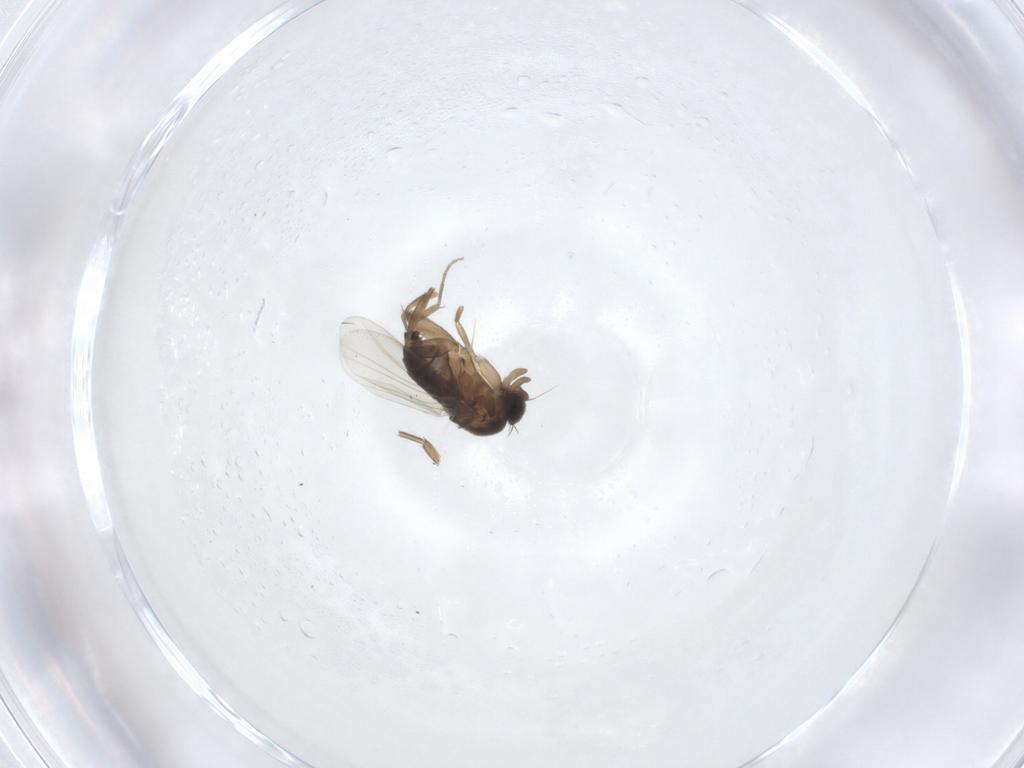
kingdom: Animalia
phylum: Arthropoda
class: Insecta
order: Diptera
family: Phoridae
